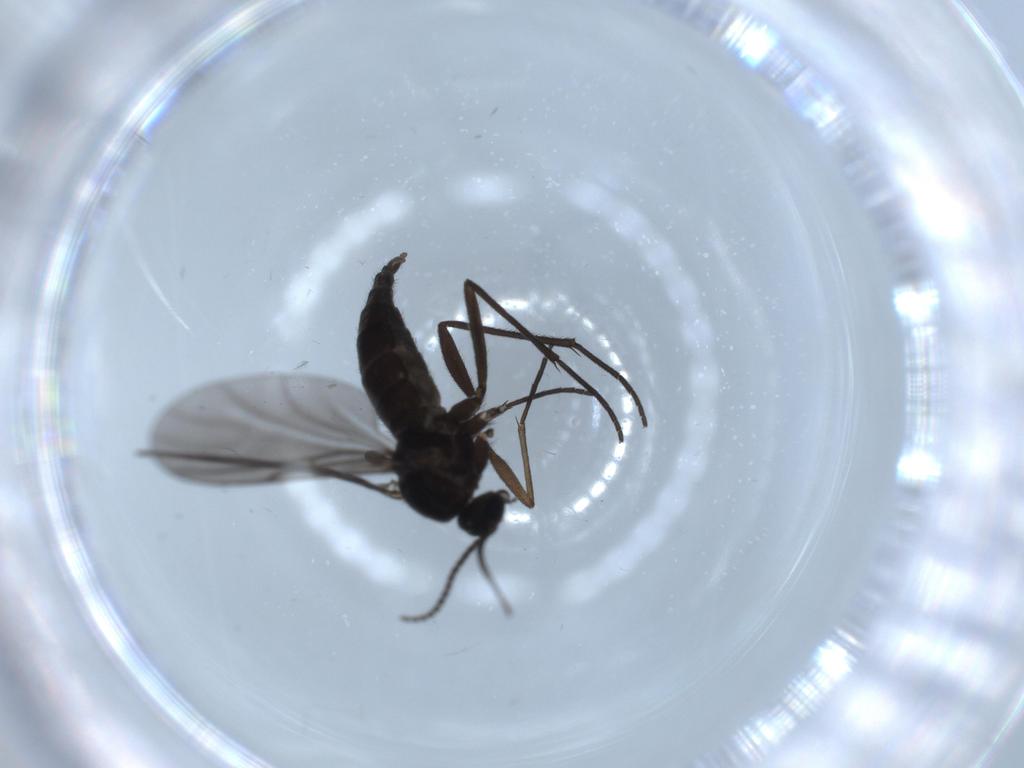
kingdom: Animalia
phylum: Arthropoda
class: Insecta
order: Diptera
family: Sciaridae
